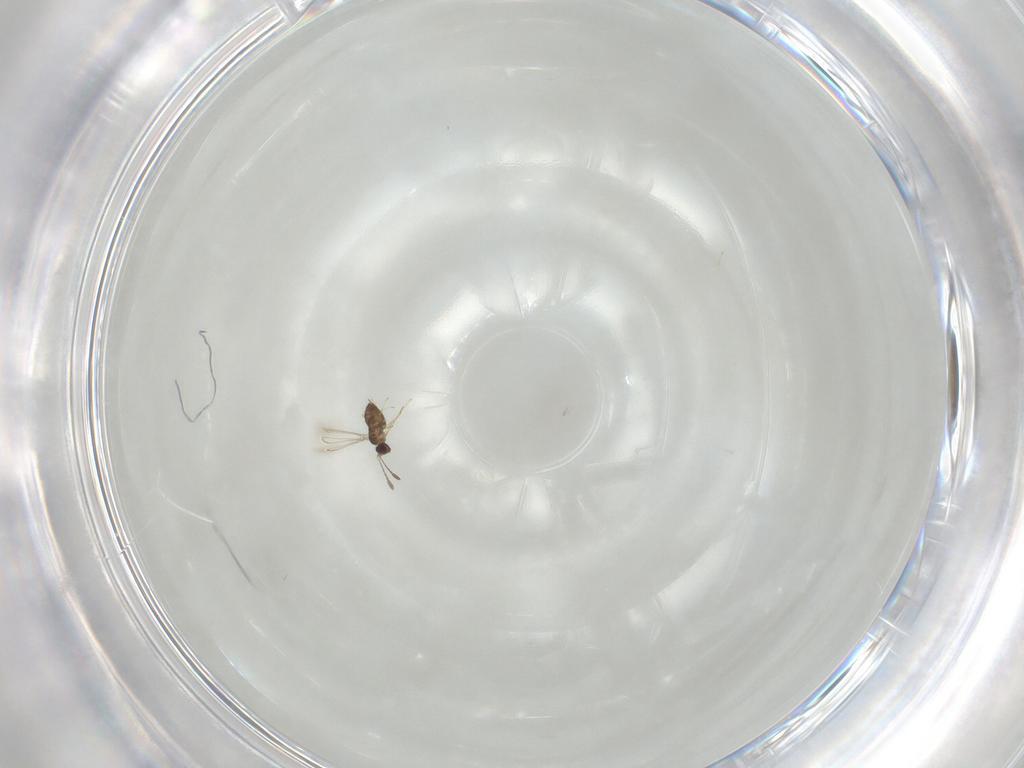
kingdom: Animalia
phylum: Arthropoda
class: Insecta
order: Hymenoptera
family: Eulophidae
